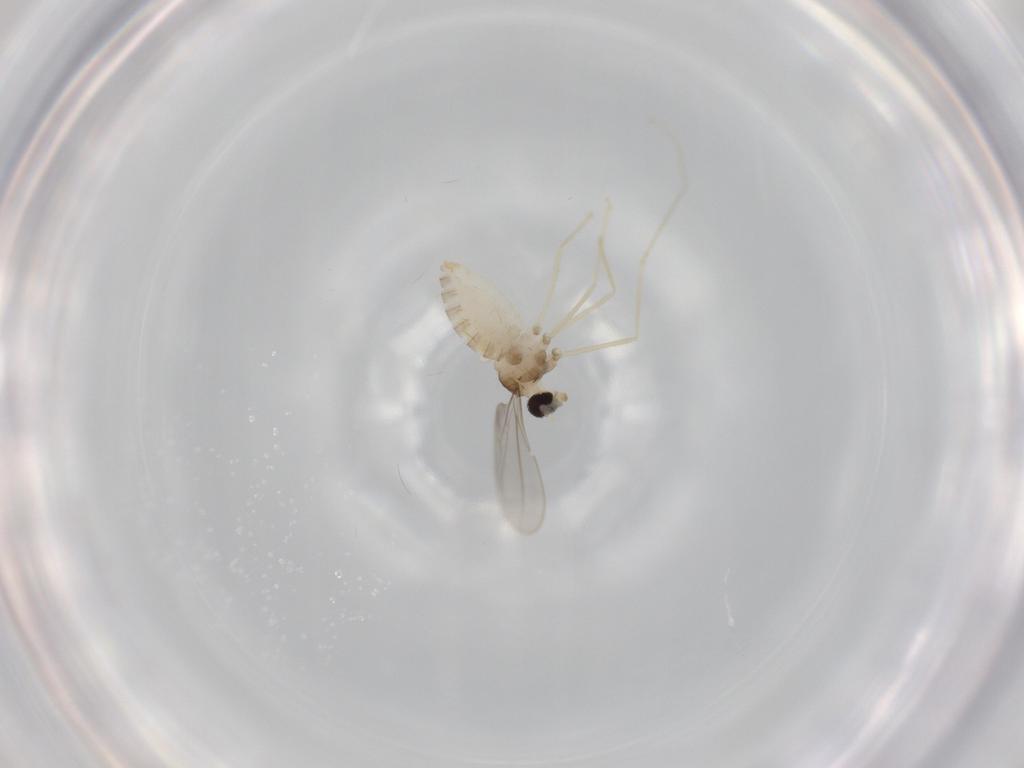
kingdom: Animalia
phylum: Arthropoda
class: Insecta
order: Diptera
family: Cecidomyiidae
